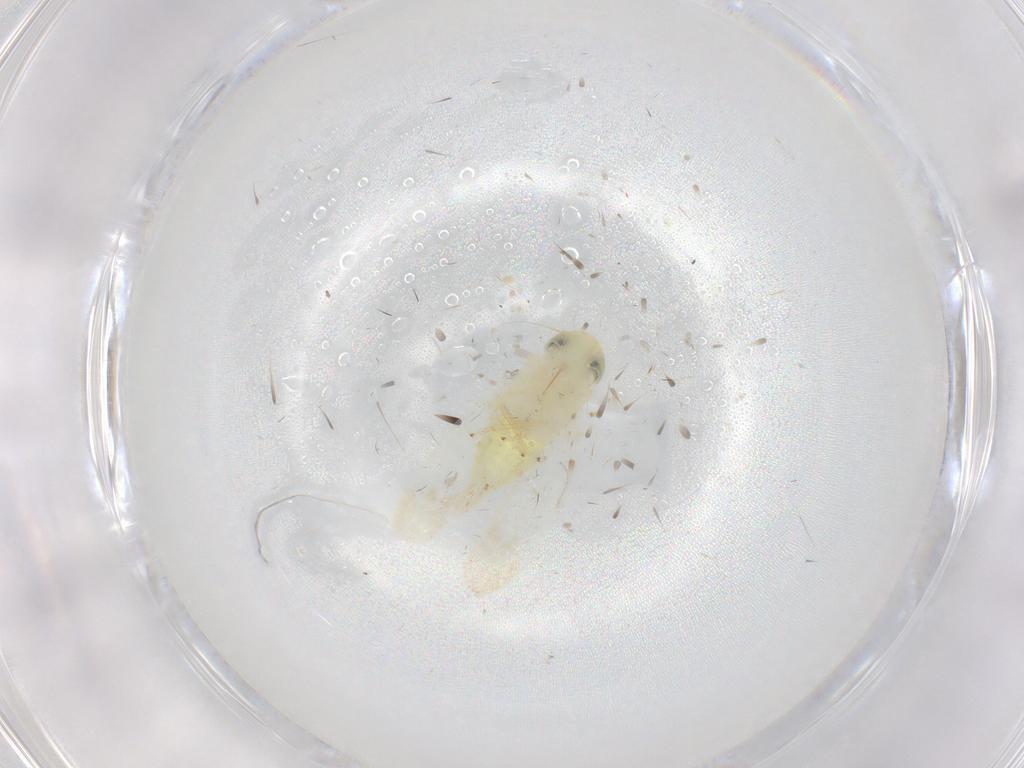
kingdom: Animalia
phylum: Arthropoda
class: Insecta
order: Hemiptera
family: Cicadellidae
